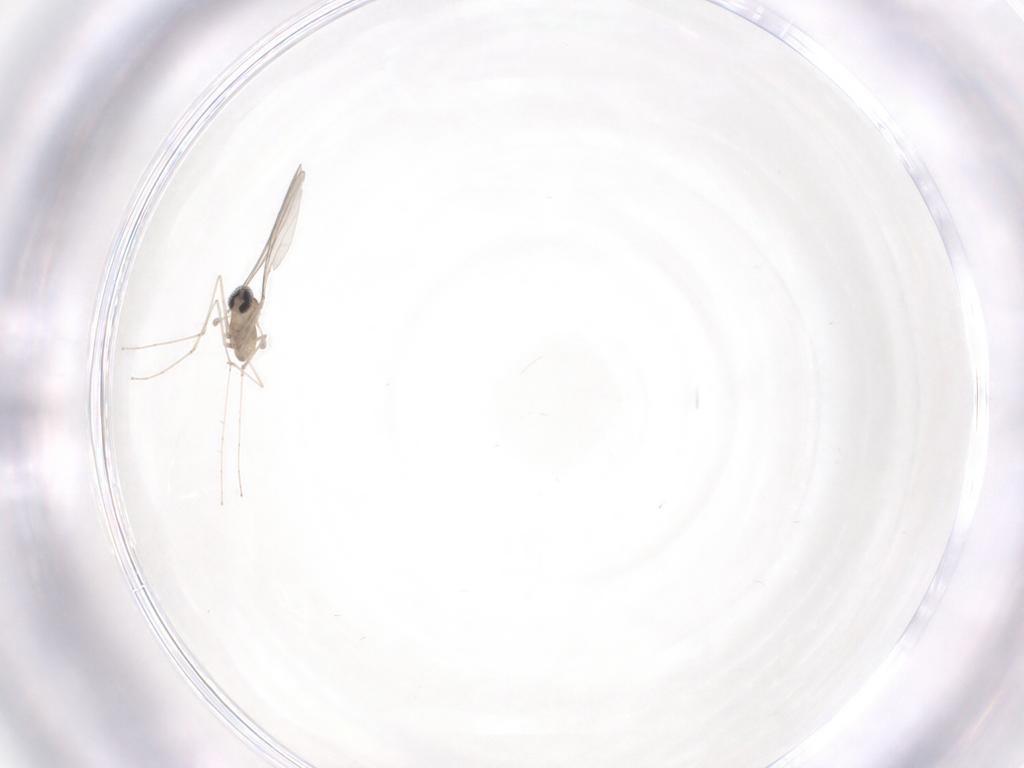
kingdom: Animalia
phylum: Arthropoda
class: Insecta
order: Diptera
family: Cecidomyiidae
